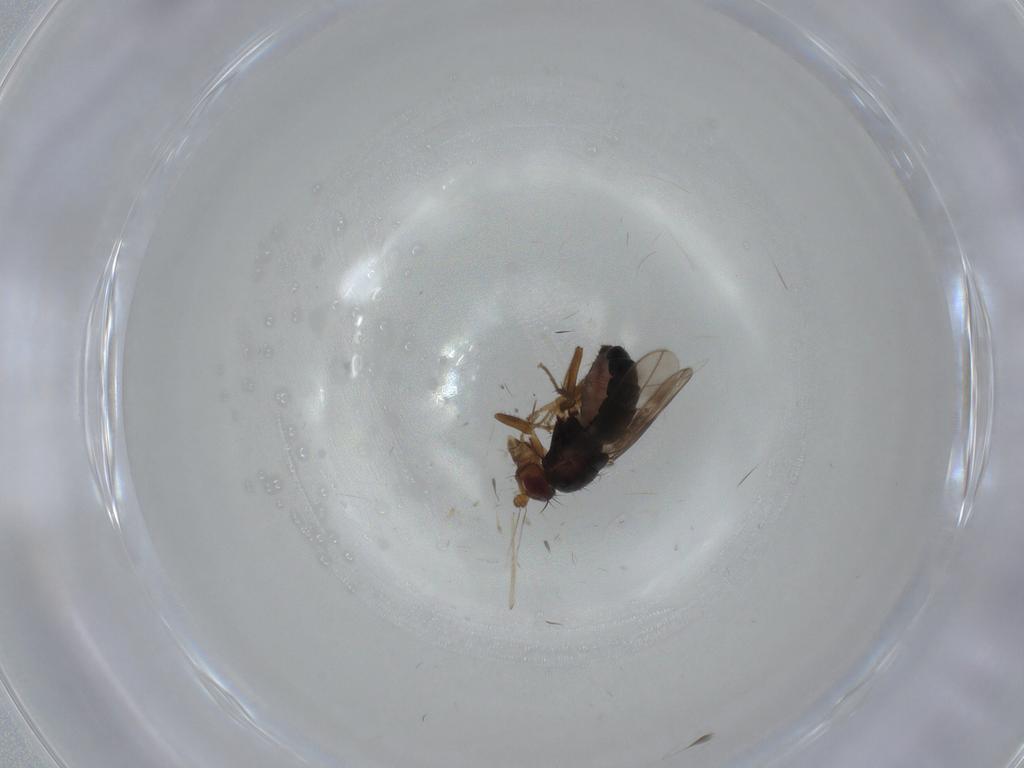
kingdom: Animalia
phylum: Arthropoda
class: Insecta
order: Diptera
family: Sphaeroceridae
